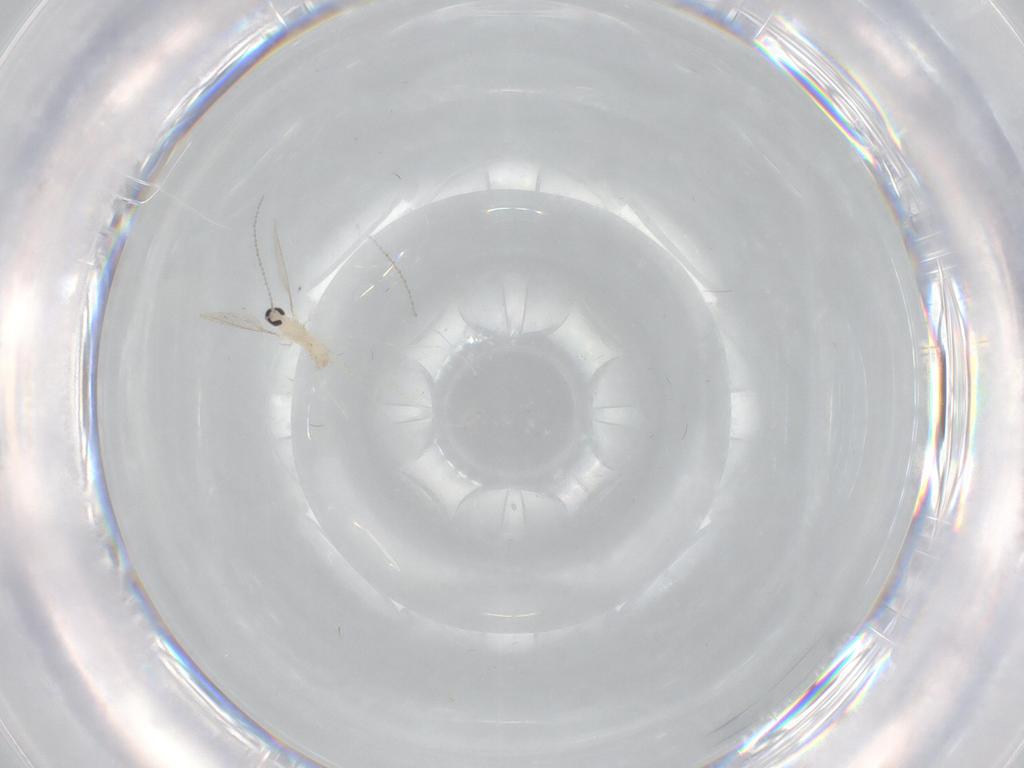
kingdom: Animalia
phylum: Arthropoda
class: Insecta
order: Diptera
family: Cecidomyiidae
